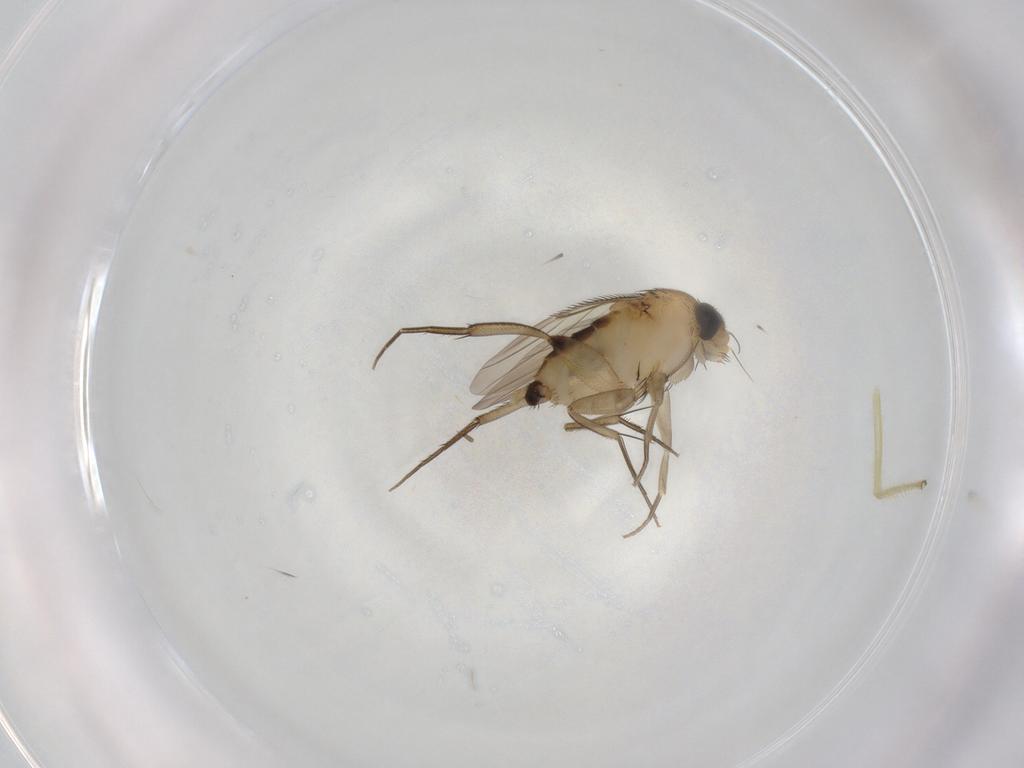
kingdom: Animalia
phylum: Arthropoda
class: Insecta
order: Diptera
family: Phoridae
